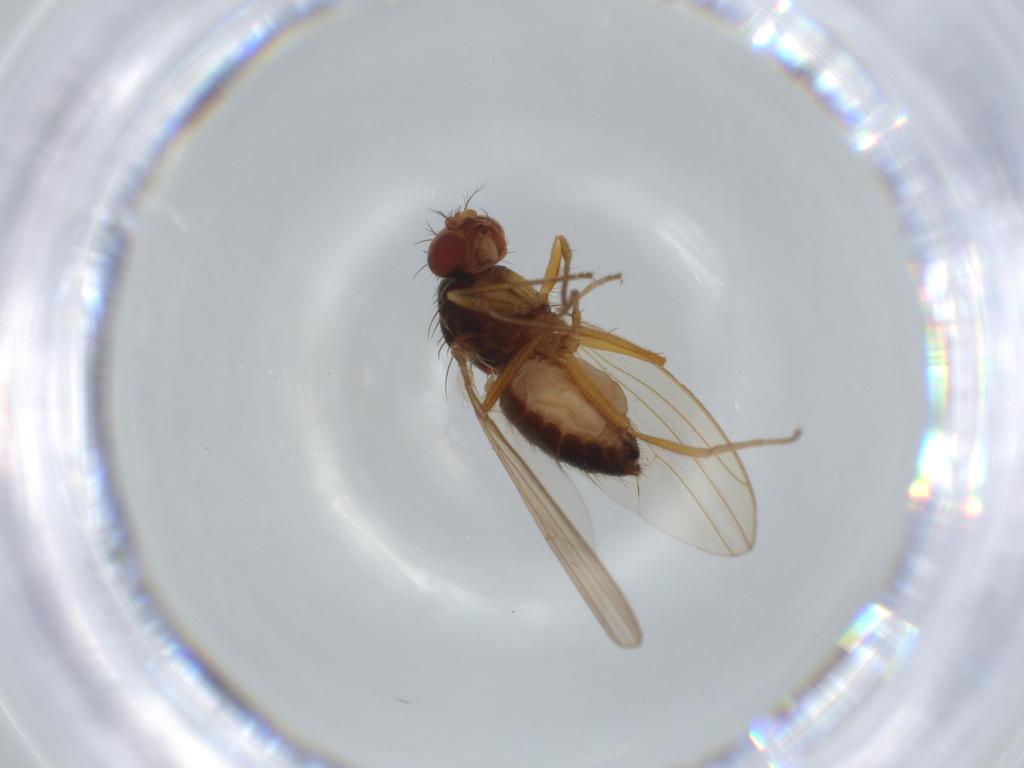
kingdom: Animalia
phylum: Arthropoda
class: Insecta
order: Diptera
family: Drosophilidae
